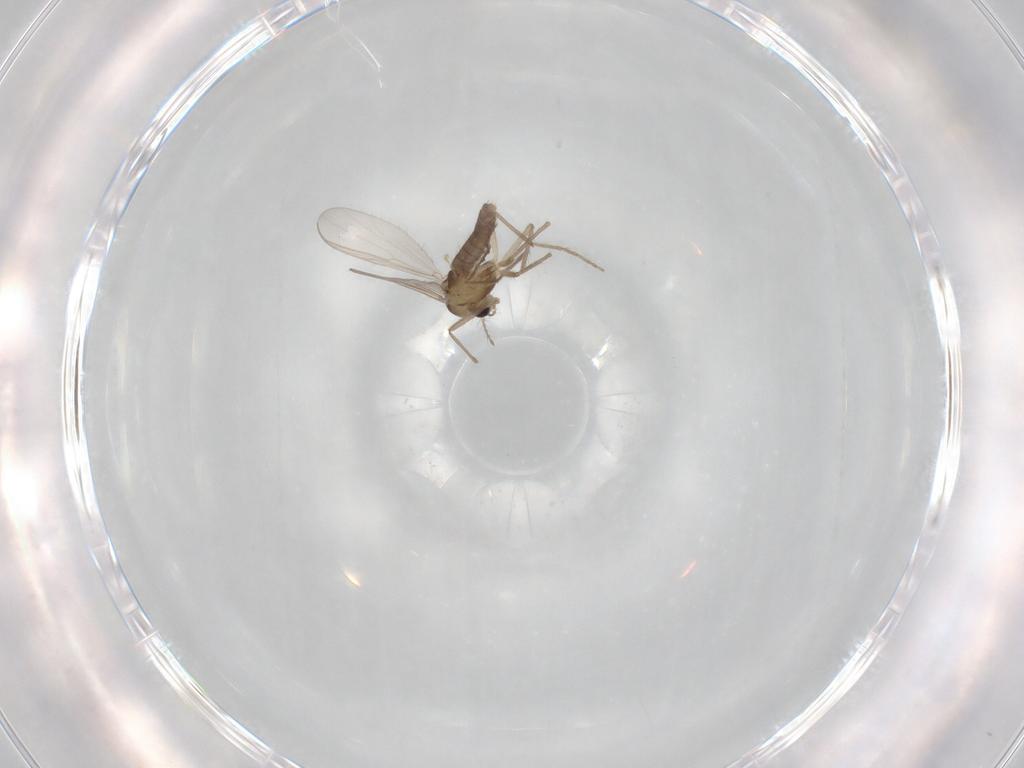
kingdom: Animalia
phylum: Arthropoda
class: Insecta
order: Diptera
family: Chironomidae
